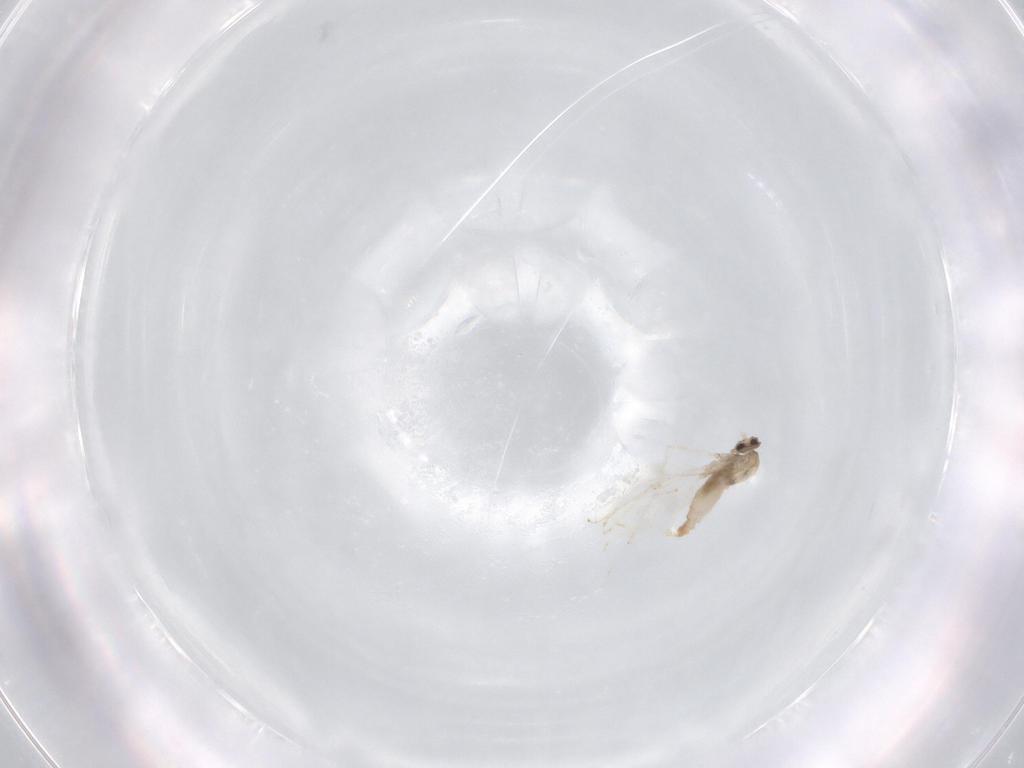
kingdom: Animalia
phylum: Arthropoda
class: Insecta
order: Diptera
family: Cecidomyiidae
